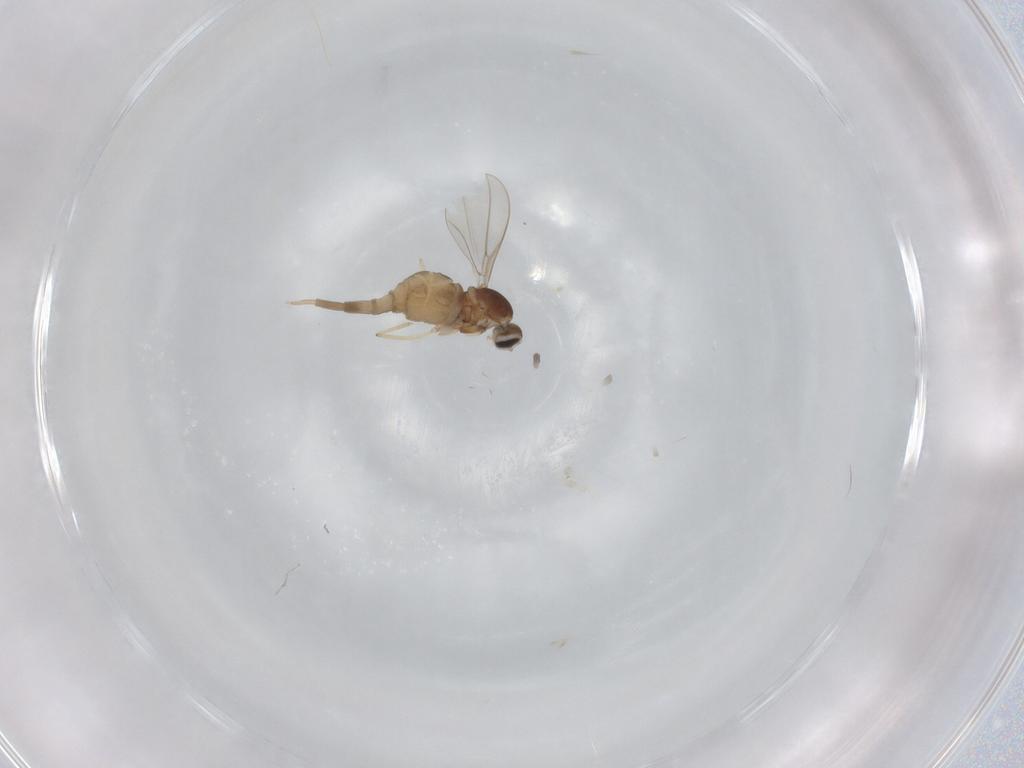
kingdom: Animalia
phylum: Arthropoda
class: Insecta
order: Diptera
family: Cecidomyiidae
